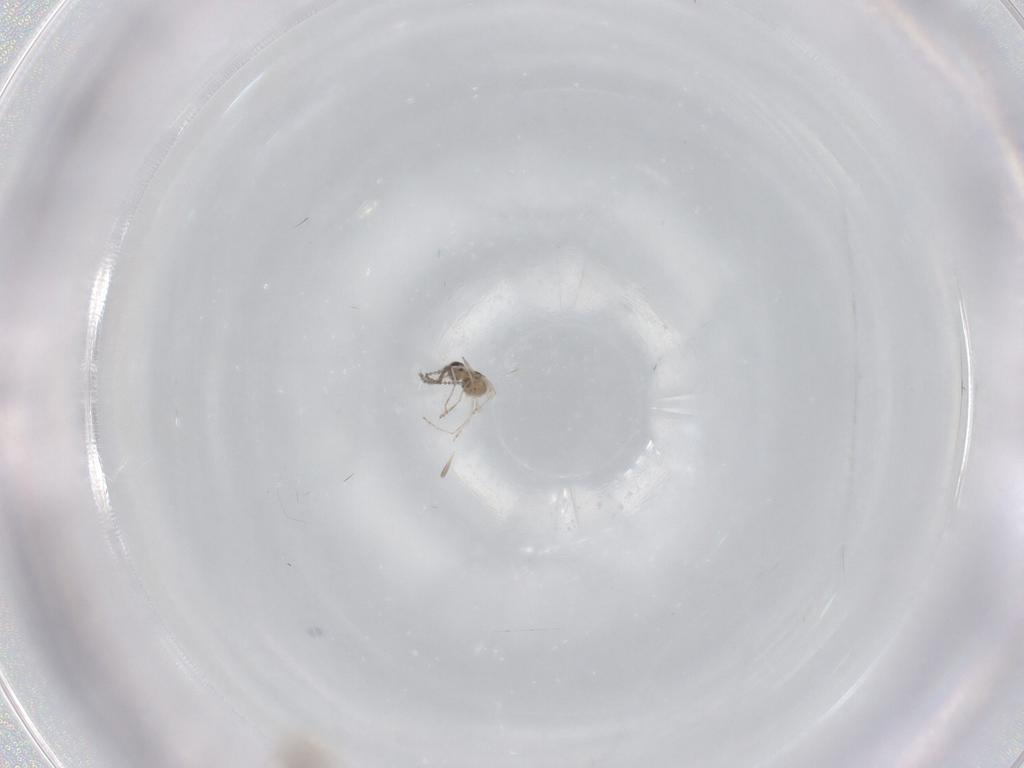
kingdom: Animalia
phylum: Arthropoda
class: Insecta
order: Diptera
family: Cecidomyiidae
